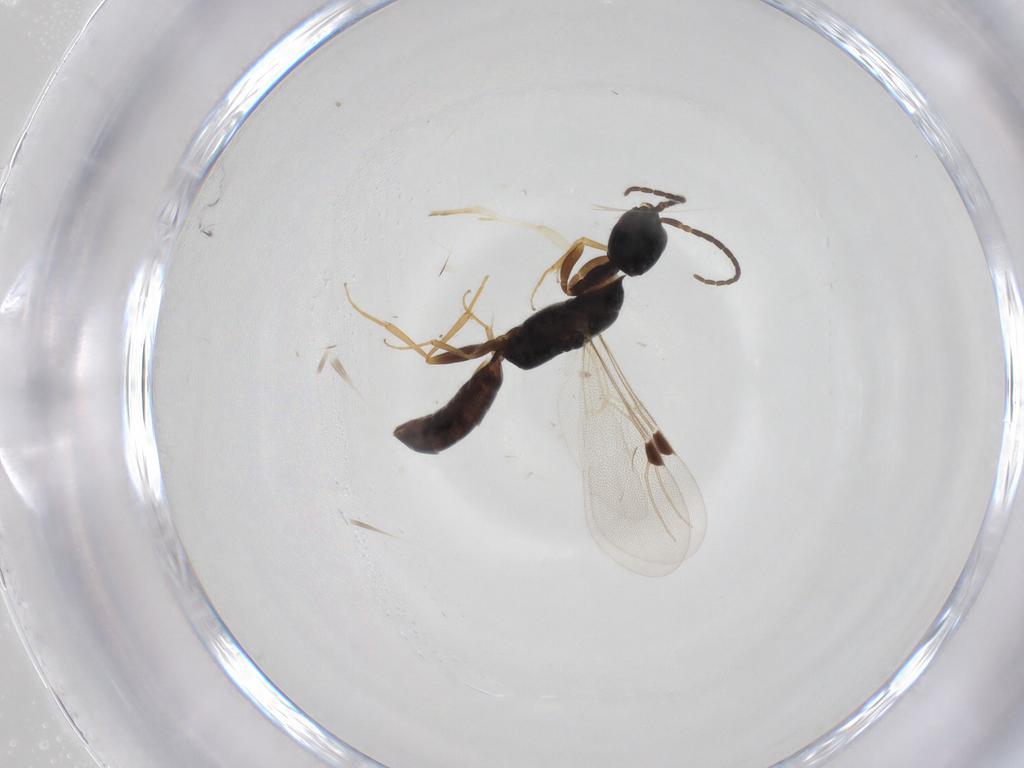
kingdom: Animalia
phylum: Arthropoda
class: Insecta
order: Hymenoptera
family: Bethylidae
